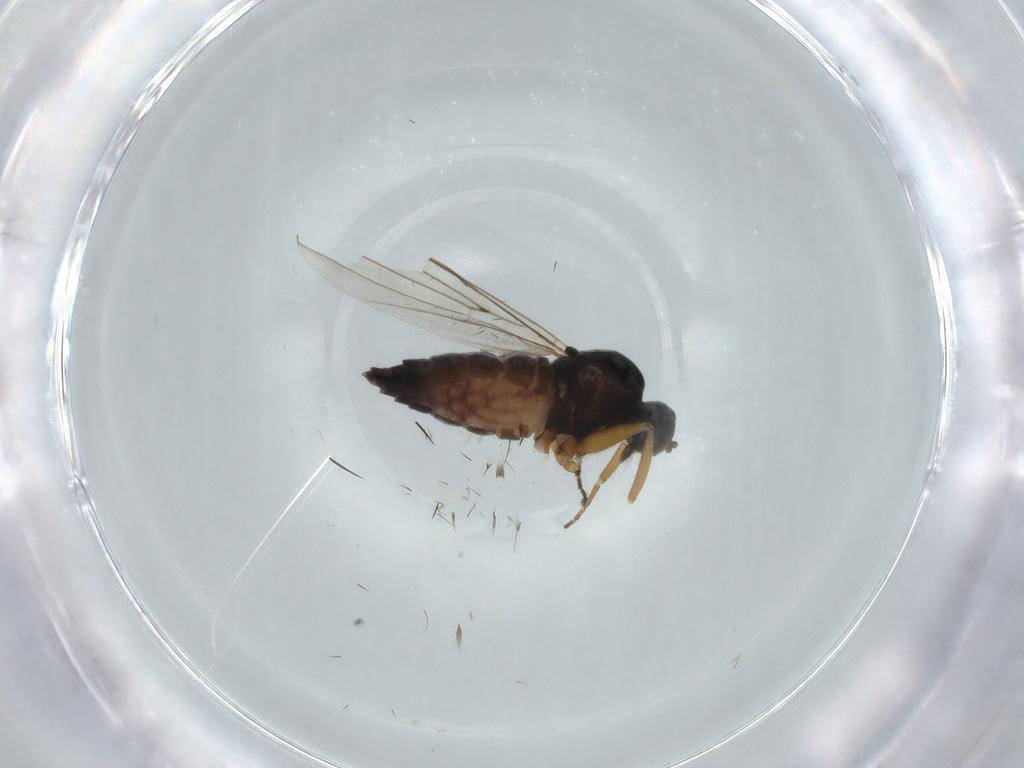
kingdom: Animalia
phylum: Arthropoda
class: Insecta
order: Diptera
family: Hybotidae
